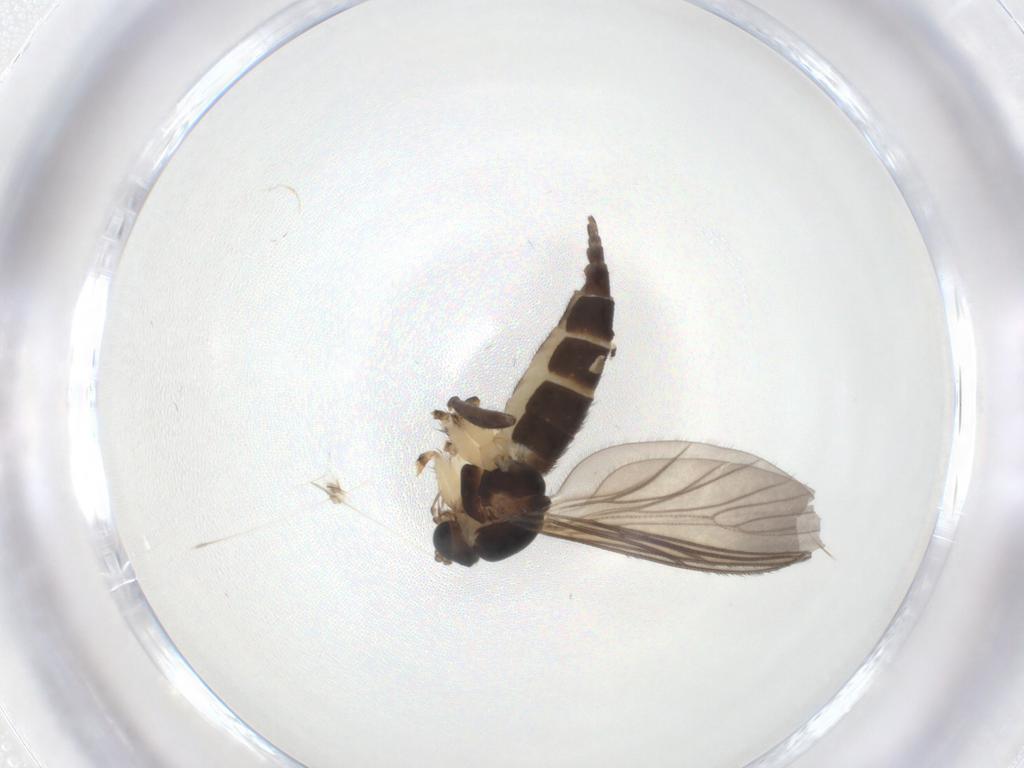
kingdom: Animalia
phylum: Arthropoda
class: Insecta
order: Diptera
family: Sciaridae
